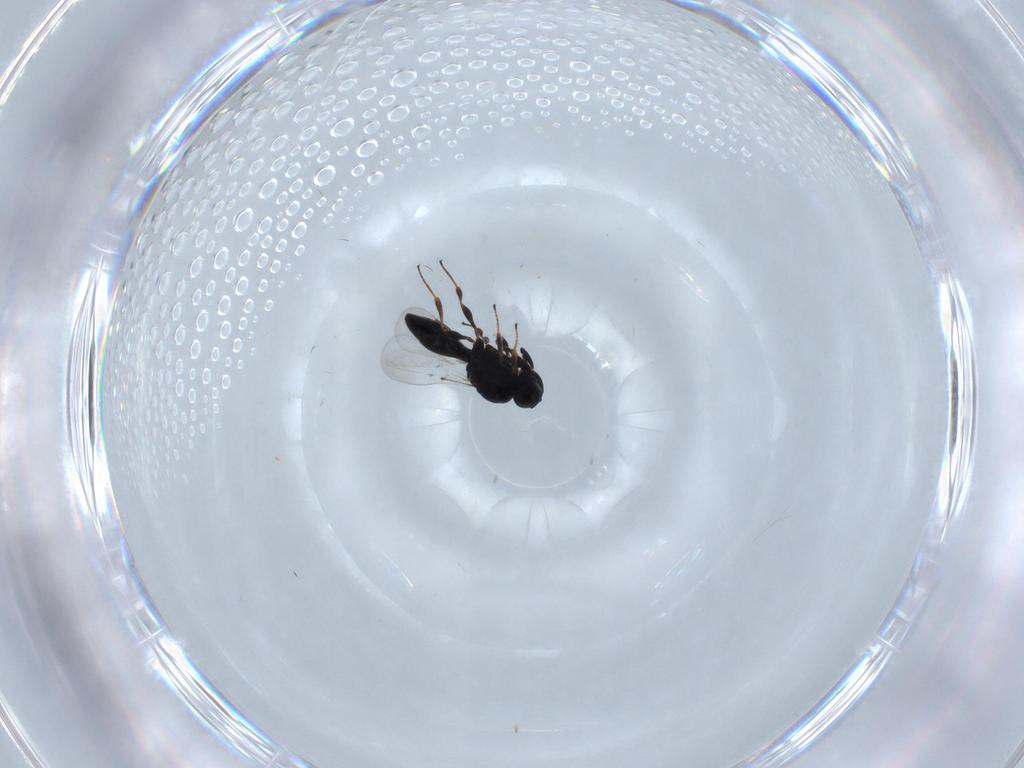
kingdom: Animalia
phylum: Arthropoda
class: Insecta
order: Hymenoptera
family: Platygastridae
